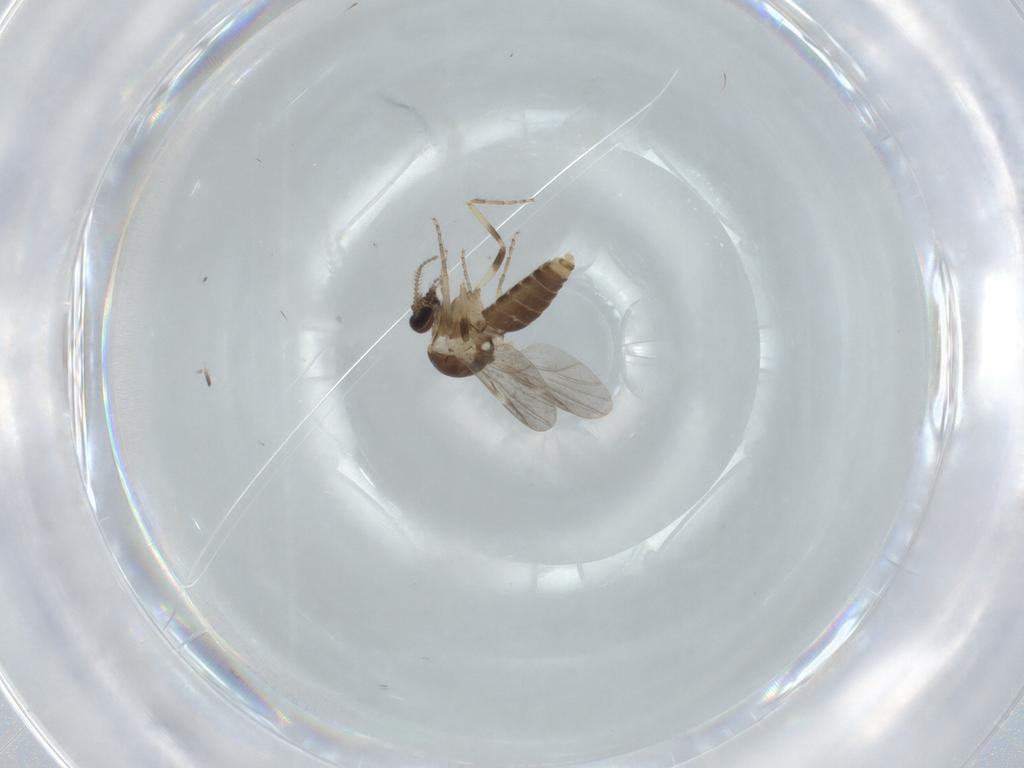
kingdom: Animalia
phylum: Arthropoda
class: Insecta
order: Diptera
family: Ceratopogonidae
